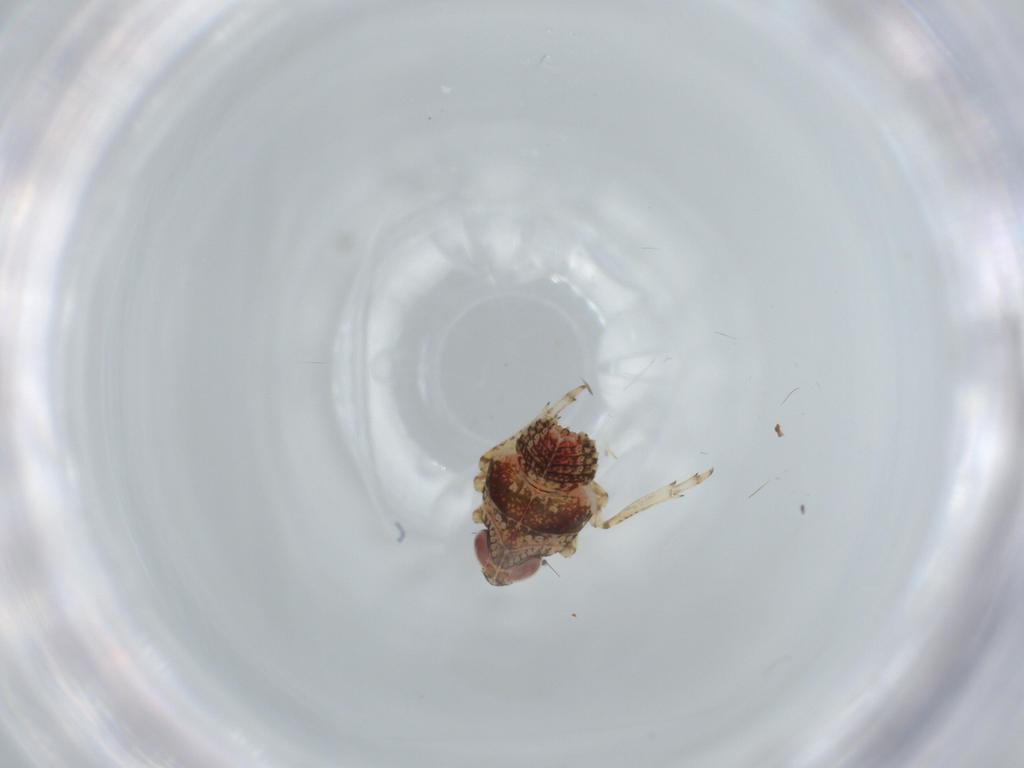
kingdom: Animalia
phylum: Arthropoda
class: Insecta
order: Hemiptera
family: Issidae
